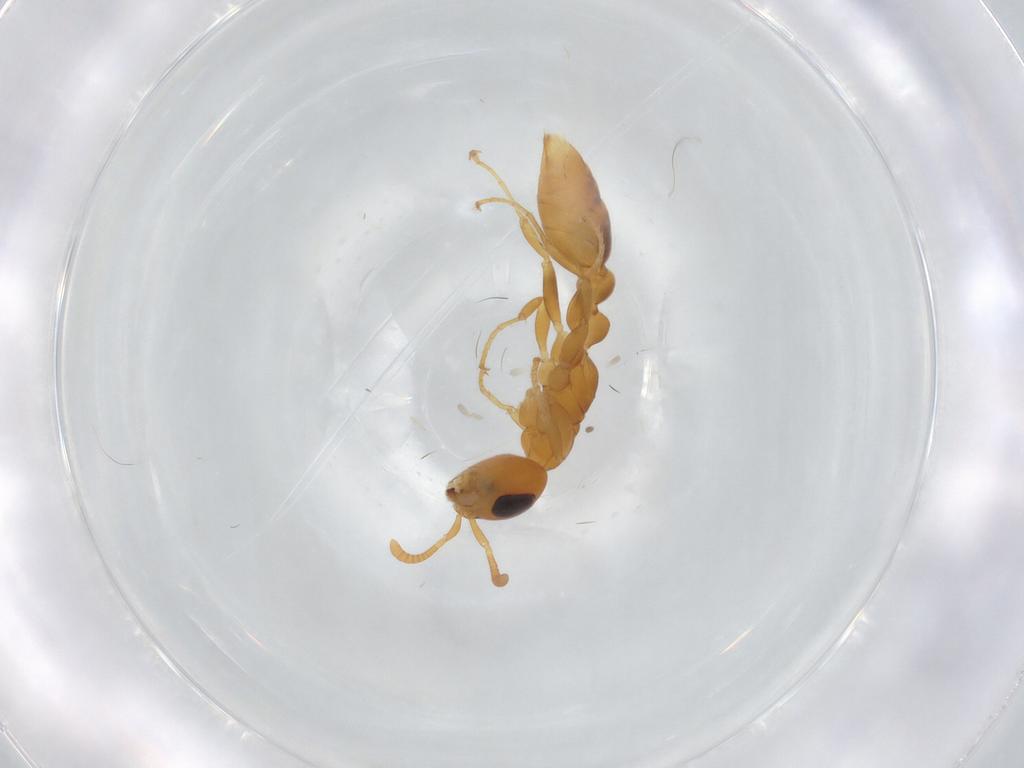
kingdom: Animalia
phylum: Arthropoda
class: Insecta
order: Hymenoptera
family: Formicidae
